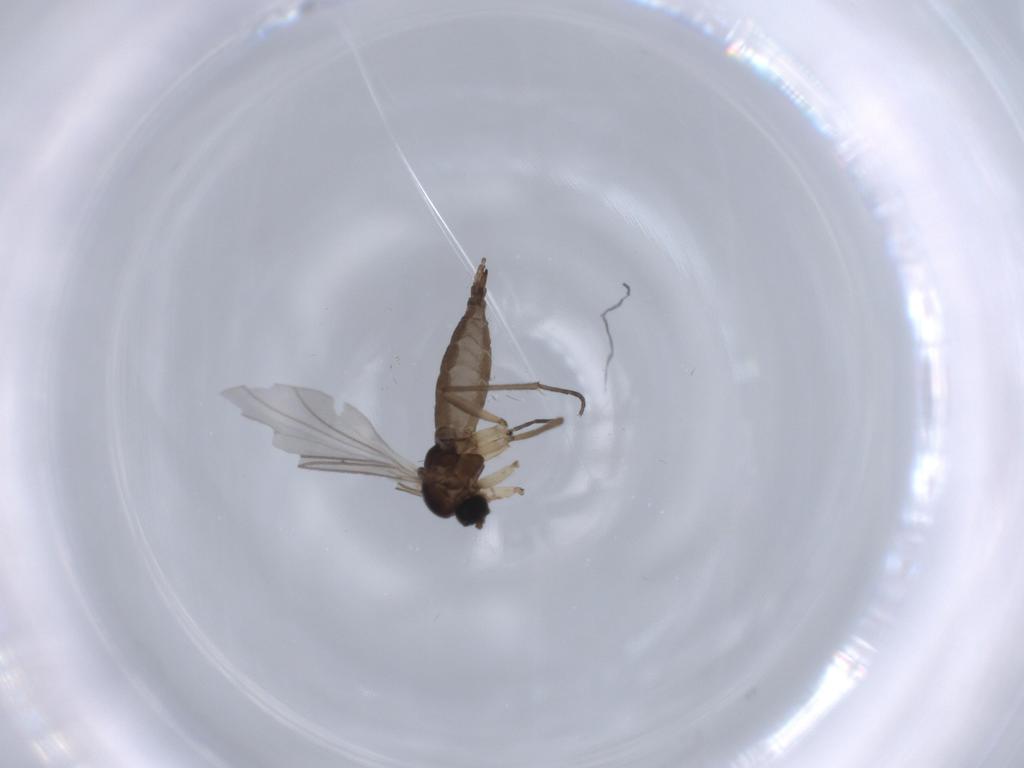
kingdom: Animalia
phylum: Arthropoda
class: Insecta
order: Diptera
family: Sciaridae
